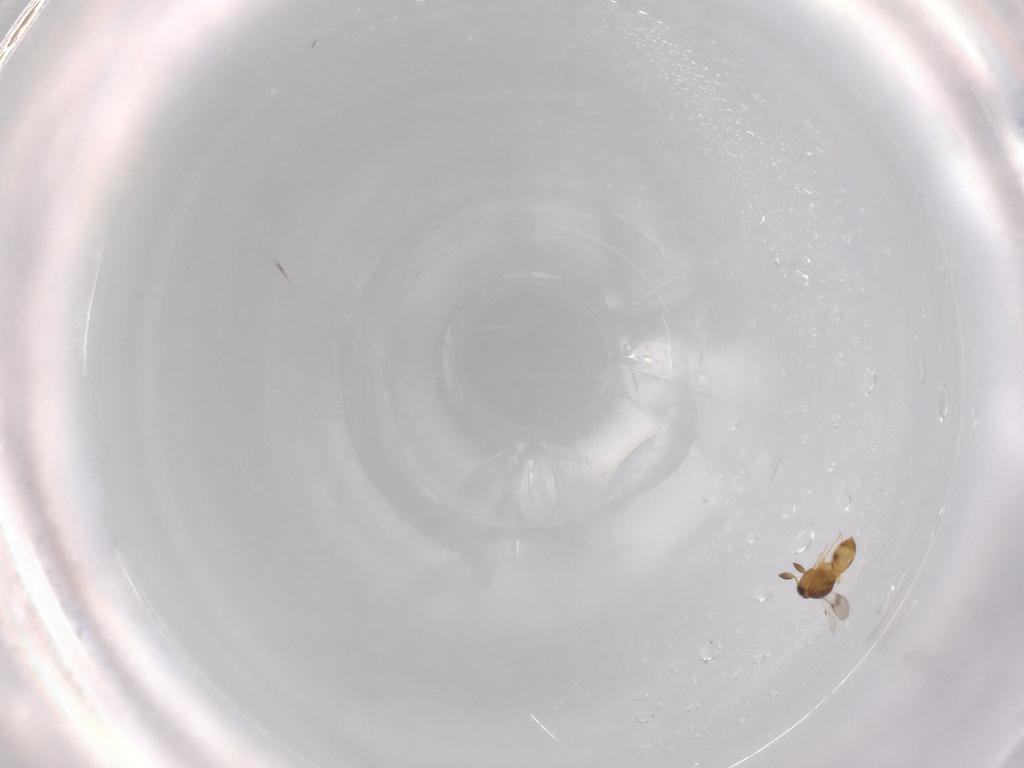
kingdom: Animalia
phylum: Arthropoda
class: Insecta
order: Hymenoptera
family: Scelionidae
